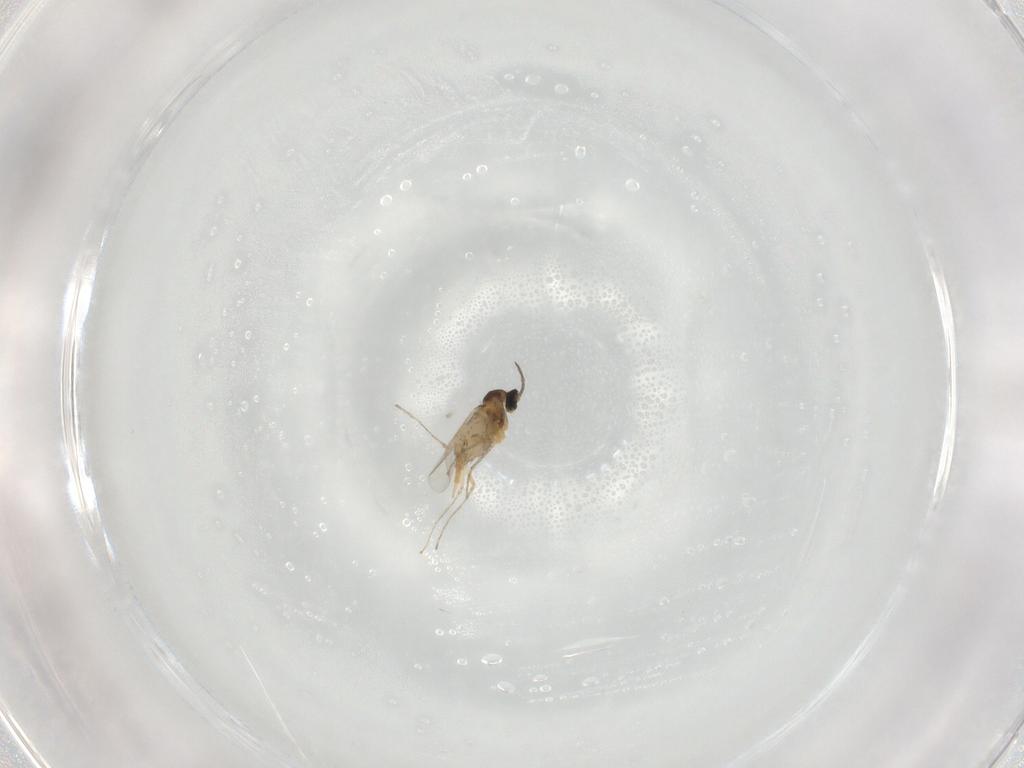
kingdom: Animalia
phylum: Arthropoda
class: Insecta
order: Diptera
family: Cecidomyiidae
